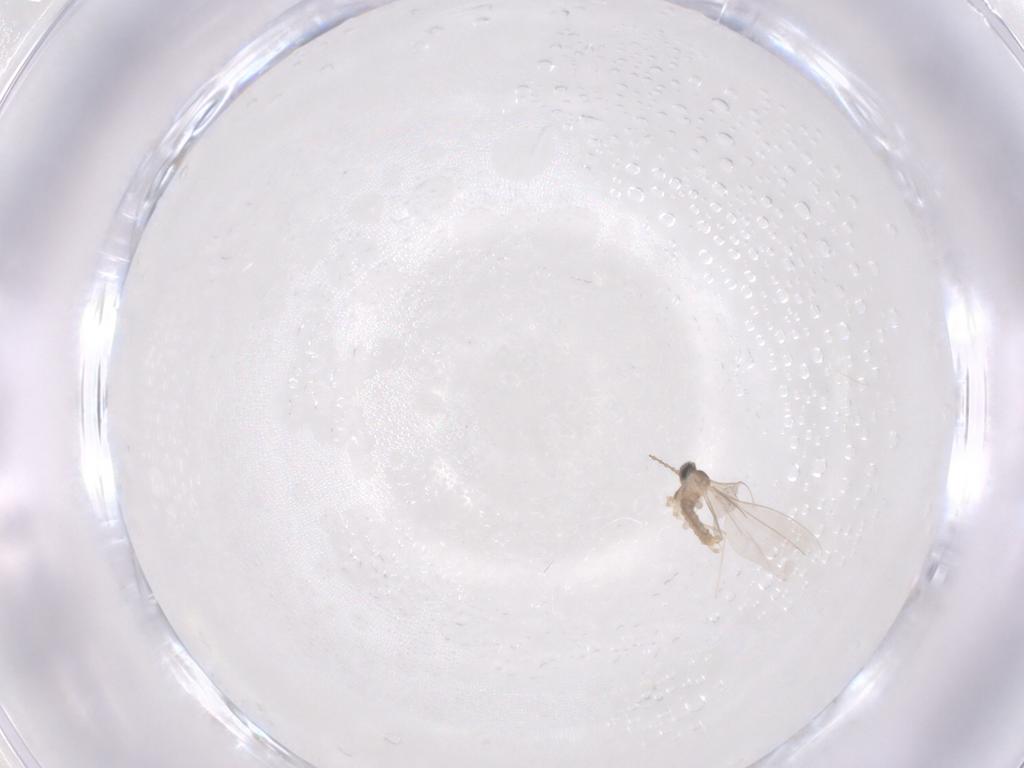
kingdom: Animalia
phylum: Arthropoda
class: Insecta
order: Diptera
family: Cecidomyiidae
